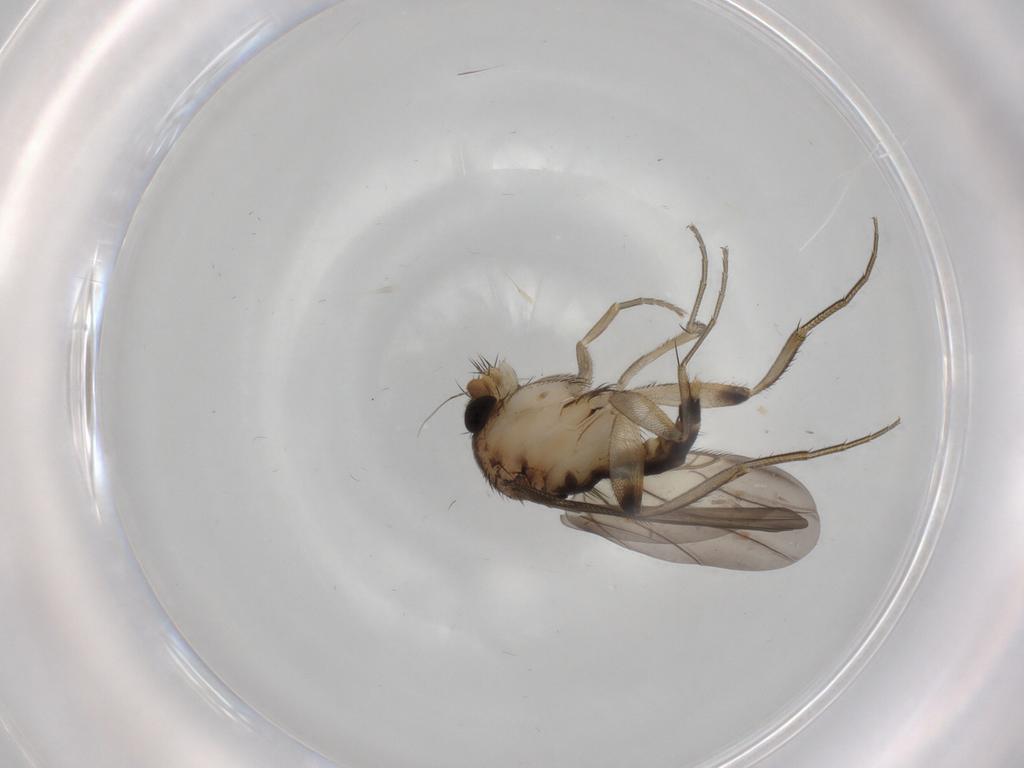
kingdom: Animalia
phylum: Arthropoda
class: Insecta
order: Diptera
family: Phoridae
